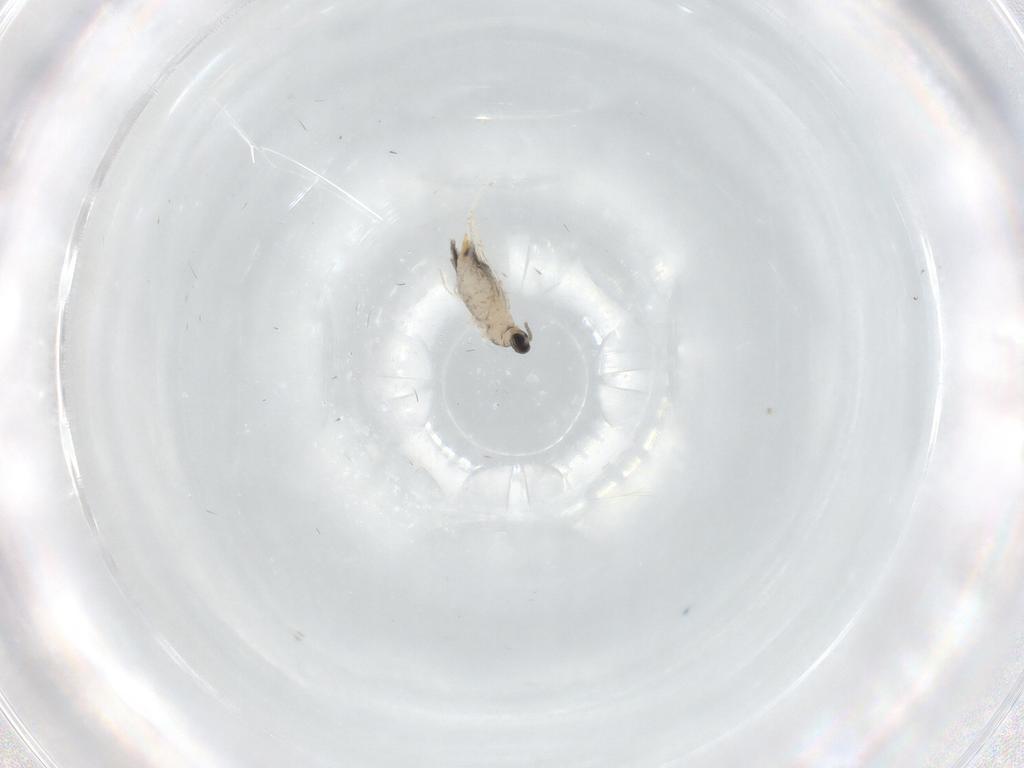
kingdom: Animalia
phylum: Arthropoda
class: Insecta
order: Diptera
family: Cecidomyiidae
